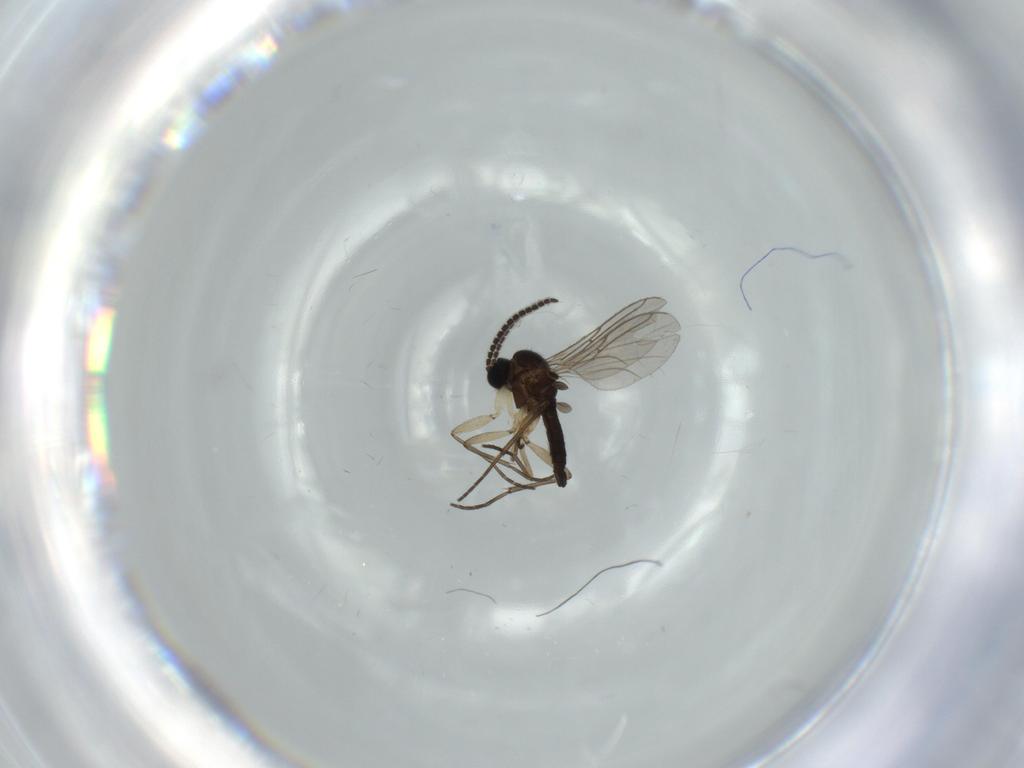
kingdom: Animalia
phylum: Arthropoda
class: Insecta
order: Diptera
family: Sciaridae
